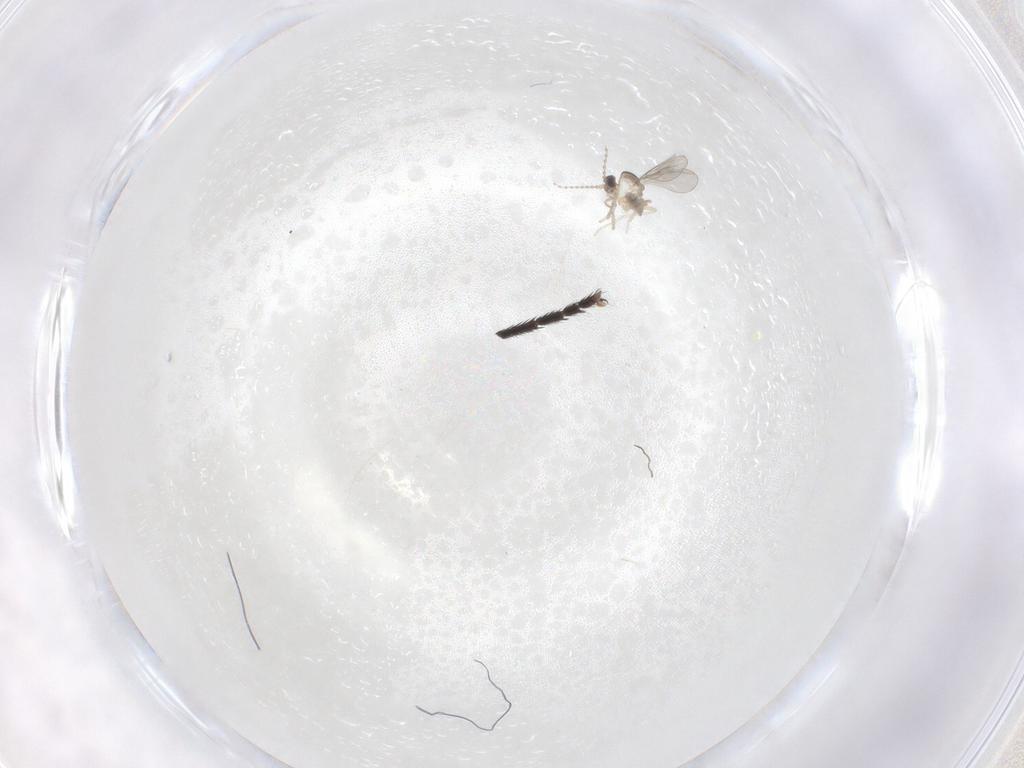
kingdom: Animalia
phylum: Arthropoda
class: Insecta
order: Diptera
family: Cecidomyiidae
